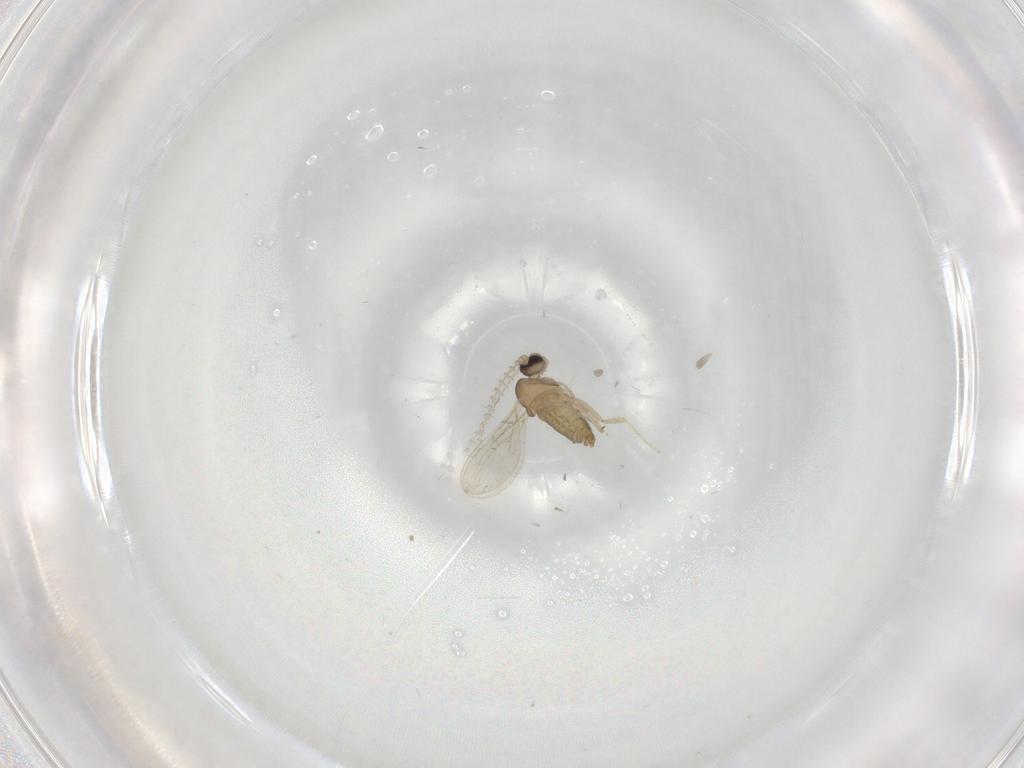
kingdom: Animalia
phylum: Arthropoda
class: Insecta
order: Diptera
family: Cecidomyiidae
